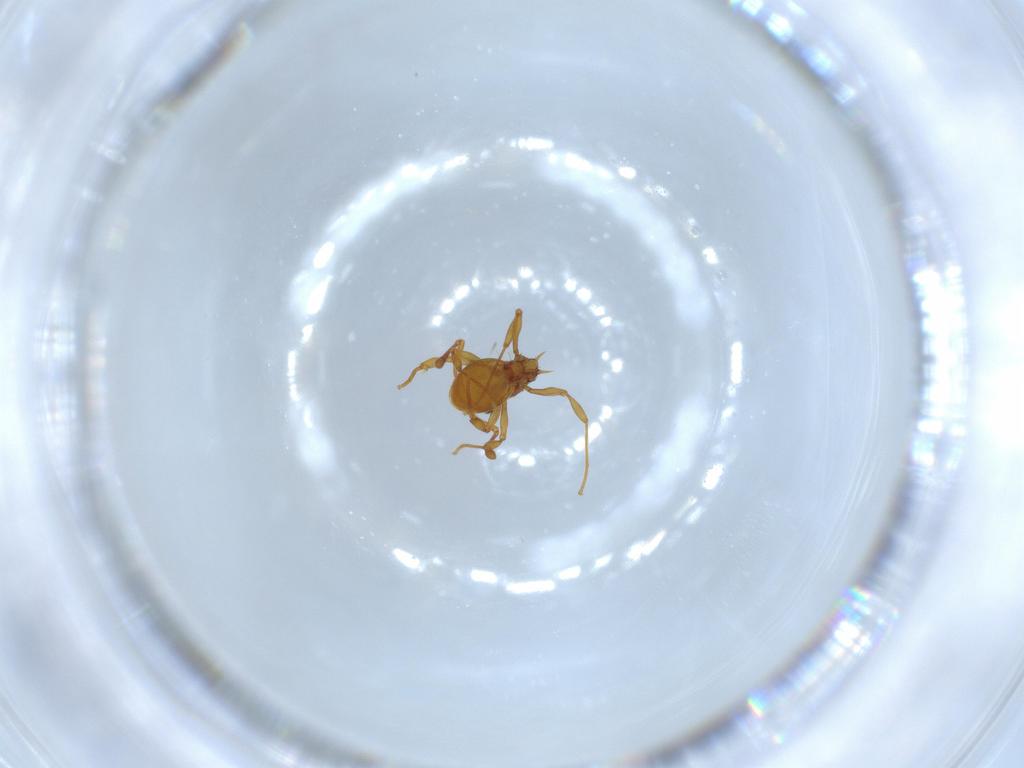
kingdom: Animalia
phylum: Arthropoda
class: Insecta
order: Hymenoptera
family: Formicidae
